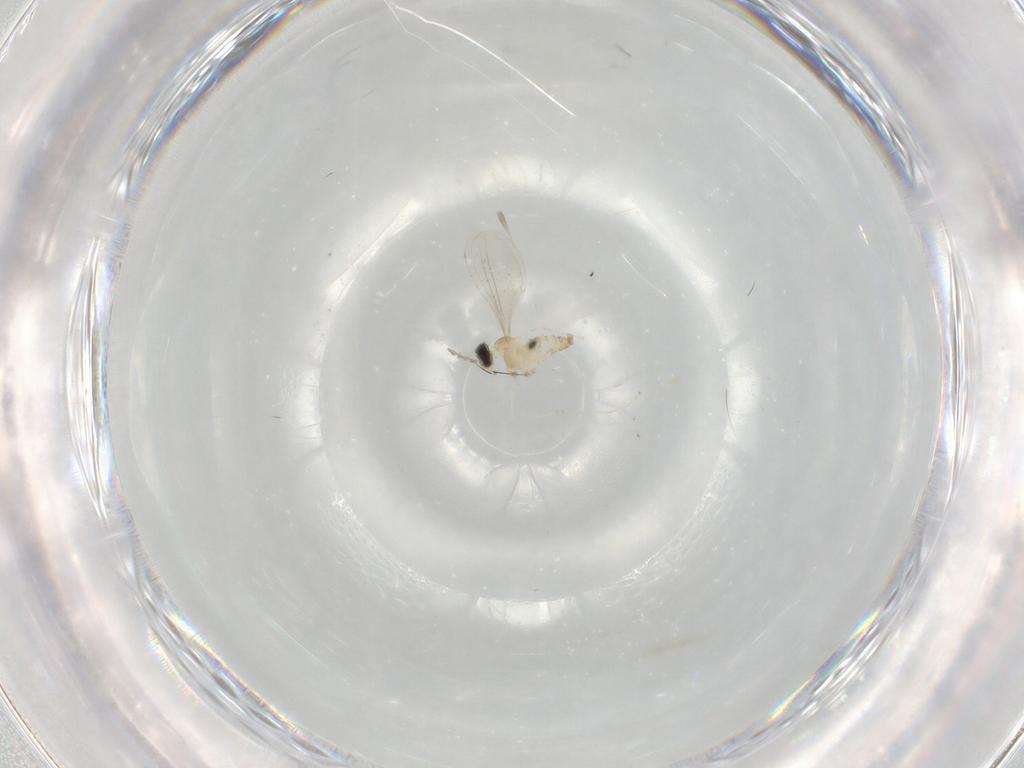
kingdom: Animalia
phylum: Arthropoda
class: Insecta
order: Diptera
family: Cecidomyiidae
